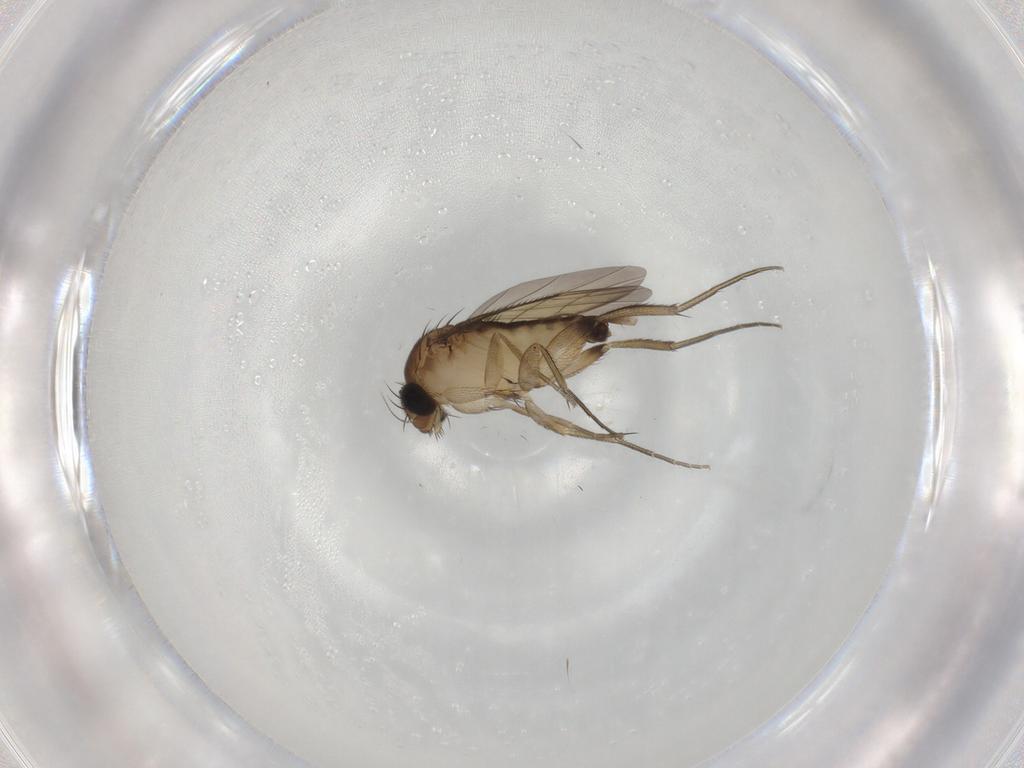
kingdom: Animalia
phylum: Arthropoda
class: Insecta
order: Diptera
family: Phoridae
